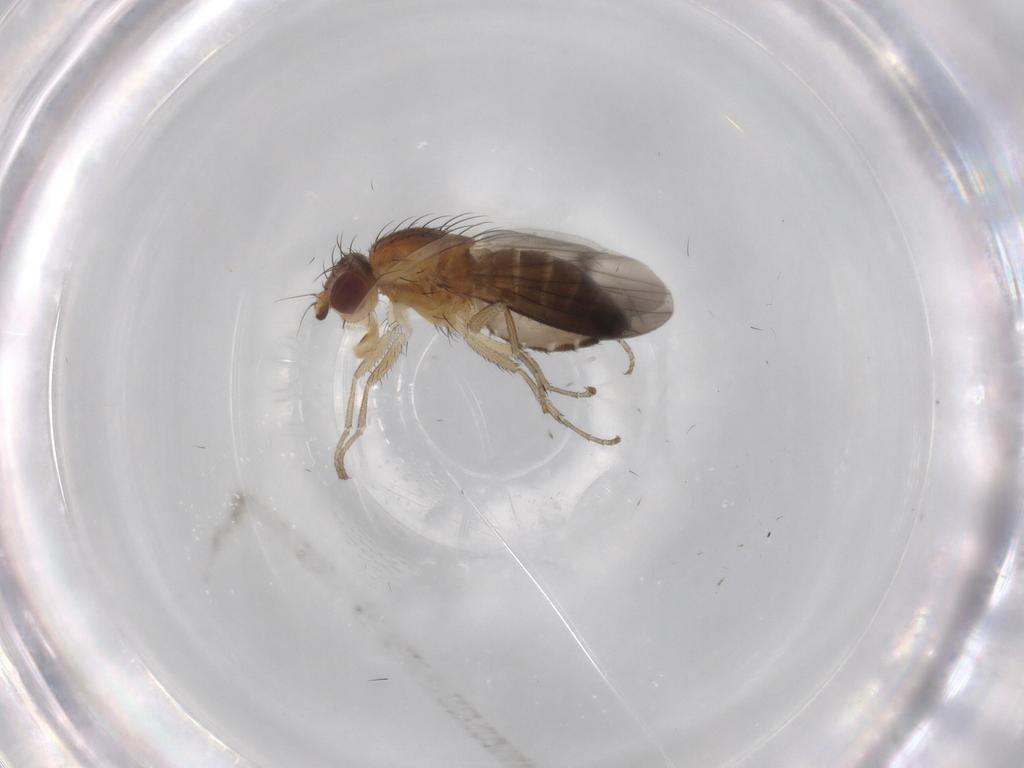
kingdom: Animalia
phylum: Arthropoda
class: Insecta
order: Diptera
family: Heleomyzidae
